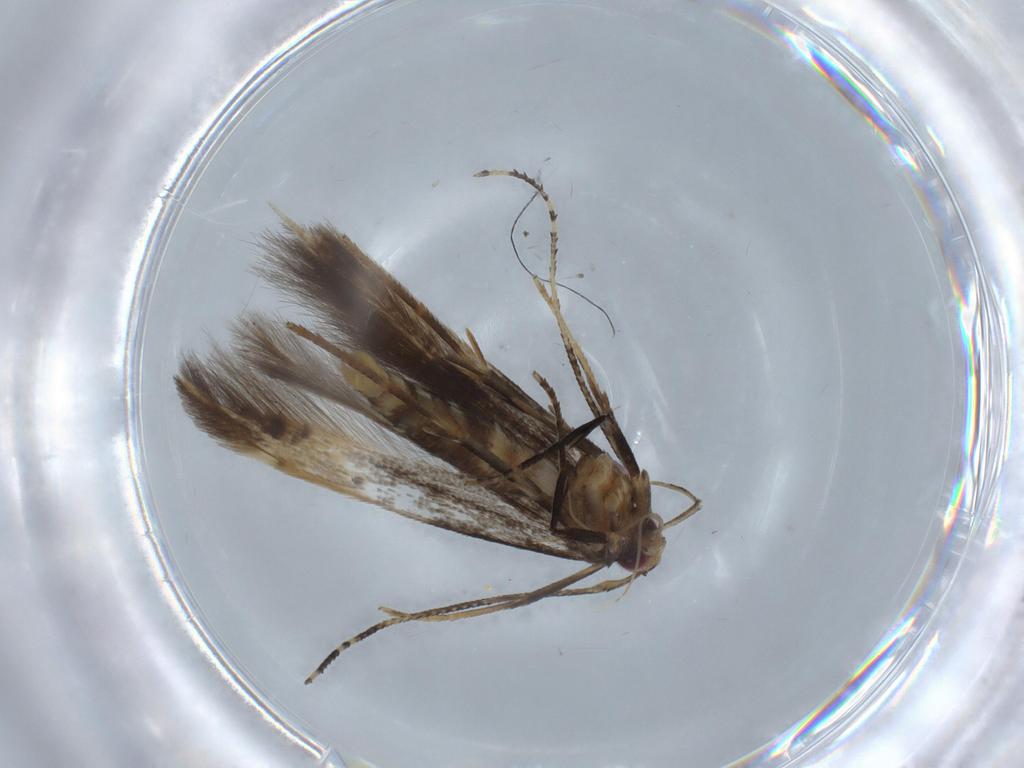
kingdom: Animalia
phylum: Arthropoda
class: Insecta
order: Lepidoptera
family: Cosmopterigidae
